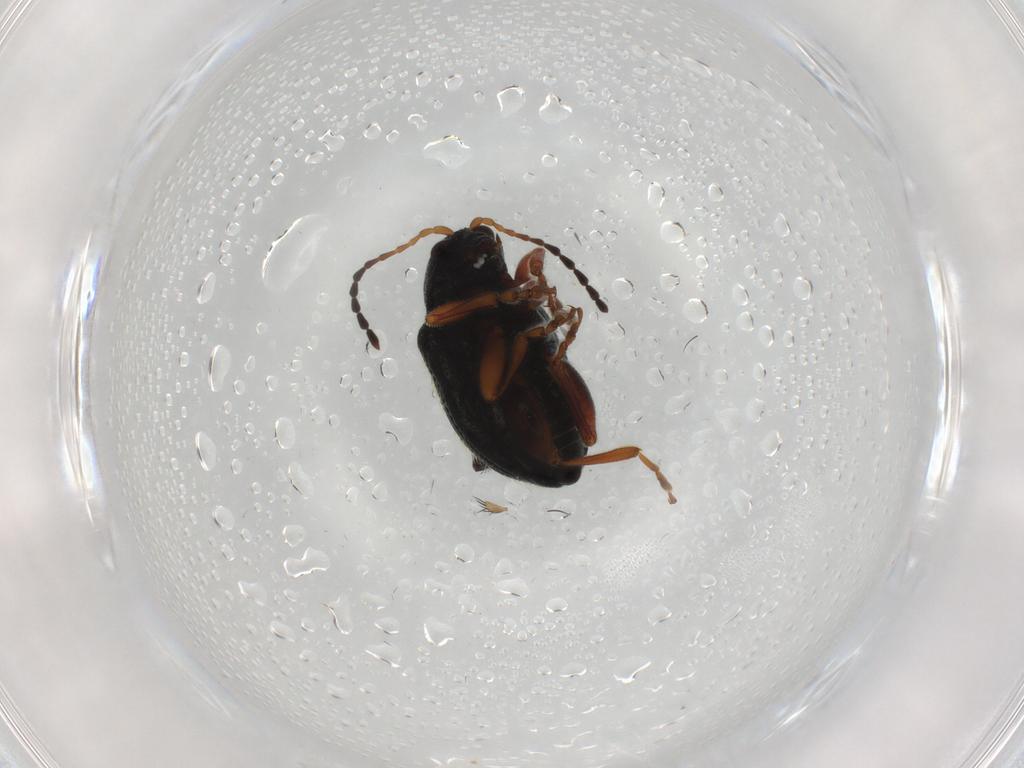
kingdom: Animalia
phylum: Arthropoda
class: Insecta
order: Coleoptera
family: Chrysomelidae
